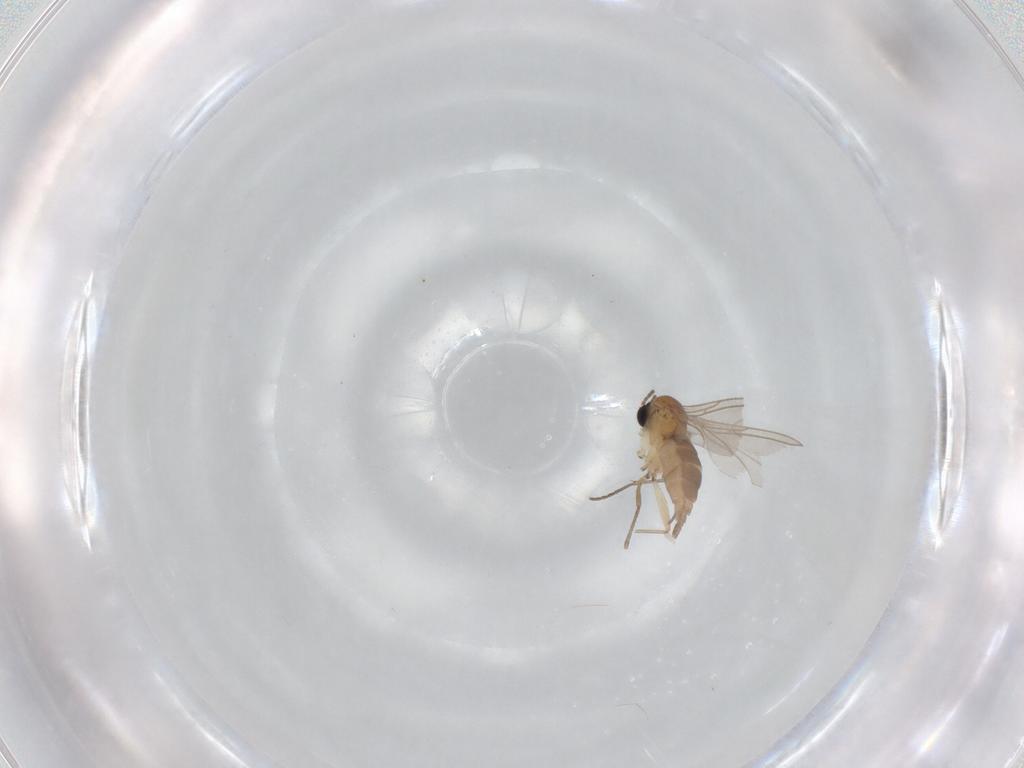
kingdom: Animalia
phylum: Arthropoda
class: Insecta
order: Diptera
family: Sciaridae
